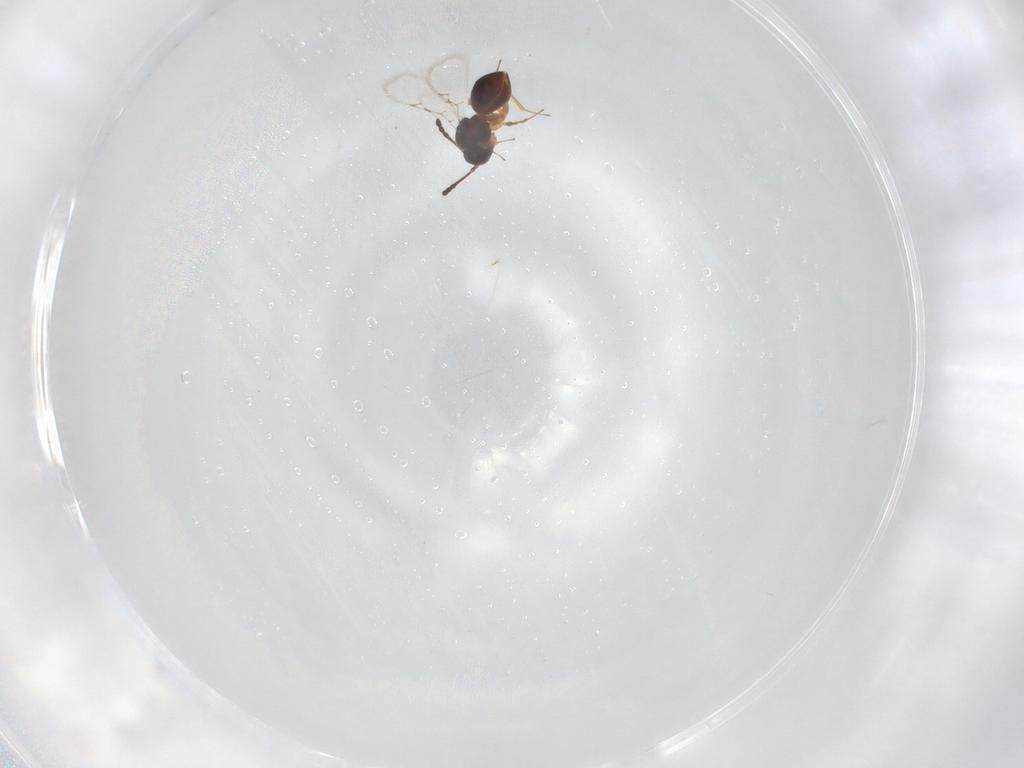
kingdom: Animalia
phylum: Arthropoda
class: Insecta
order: Hymenoptera
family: Figitidae
